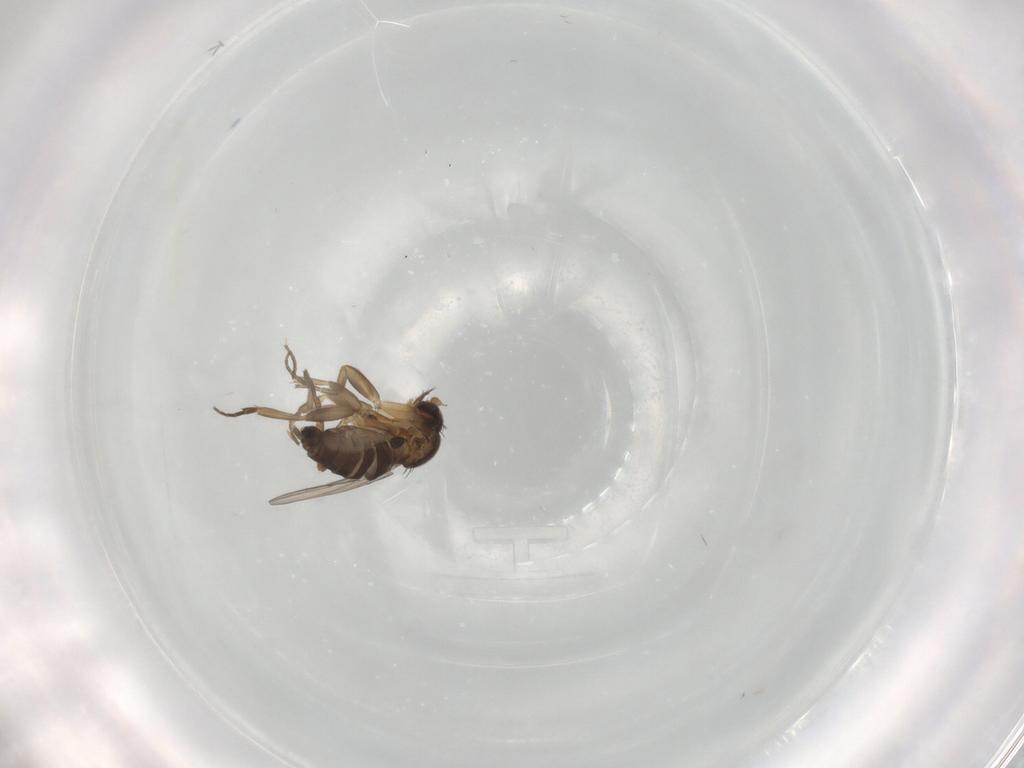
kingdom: Animalia
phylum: Arthropoda
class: Insecta
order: Diptera
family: Phoridae
